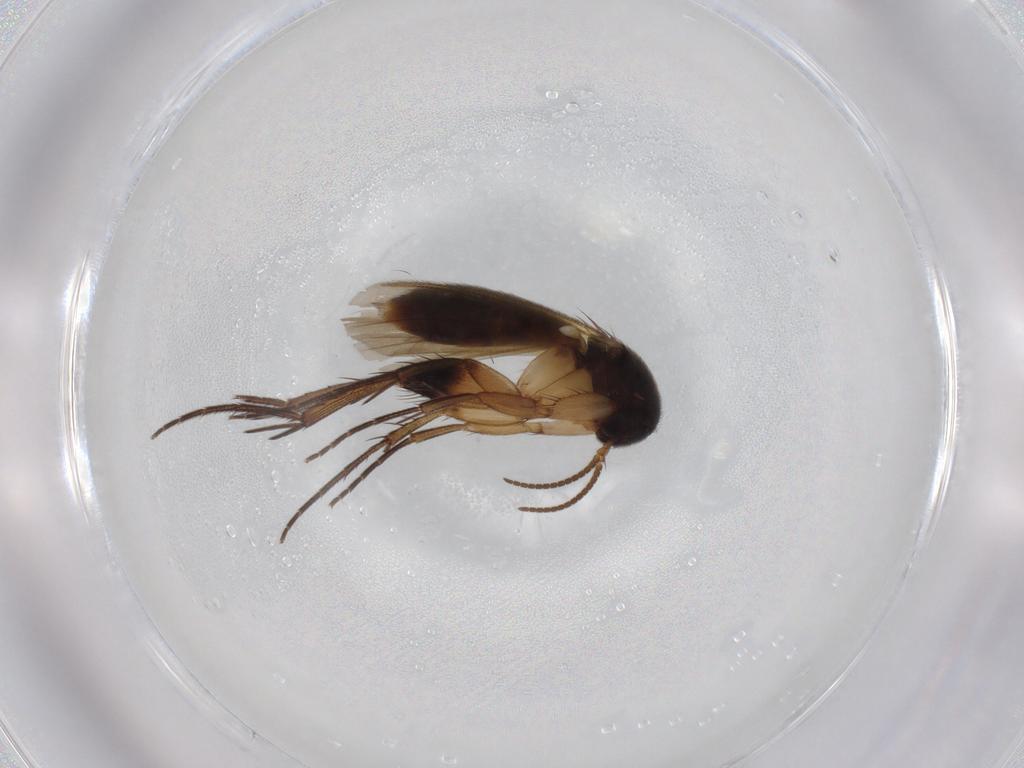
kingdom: Animalia
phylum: Arthropoda
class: Insecta
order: Diptera
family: Syrphidae
